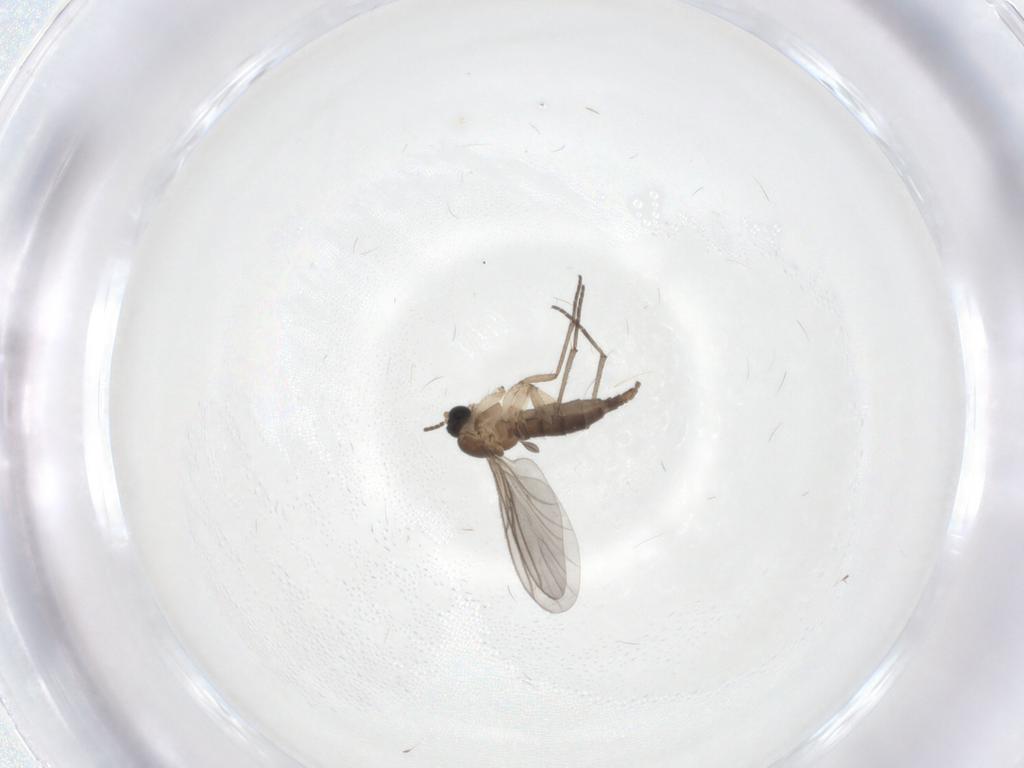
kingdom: Animalia
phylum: Arthropoda
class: Insecta
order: Diptera
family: Sciaridae
